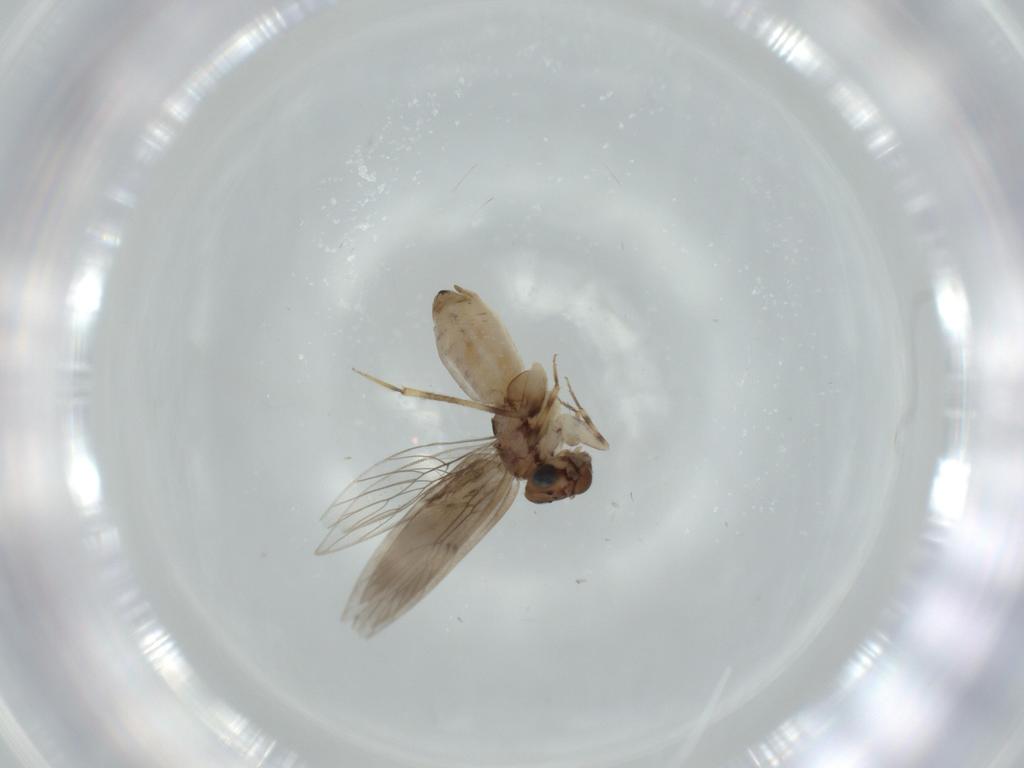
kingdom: Animalia
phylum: Arthropoda
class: Insecta
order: Psocodea
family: Lepidopsocidae
